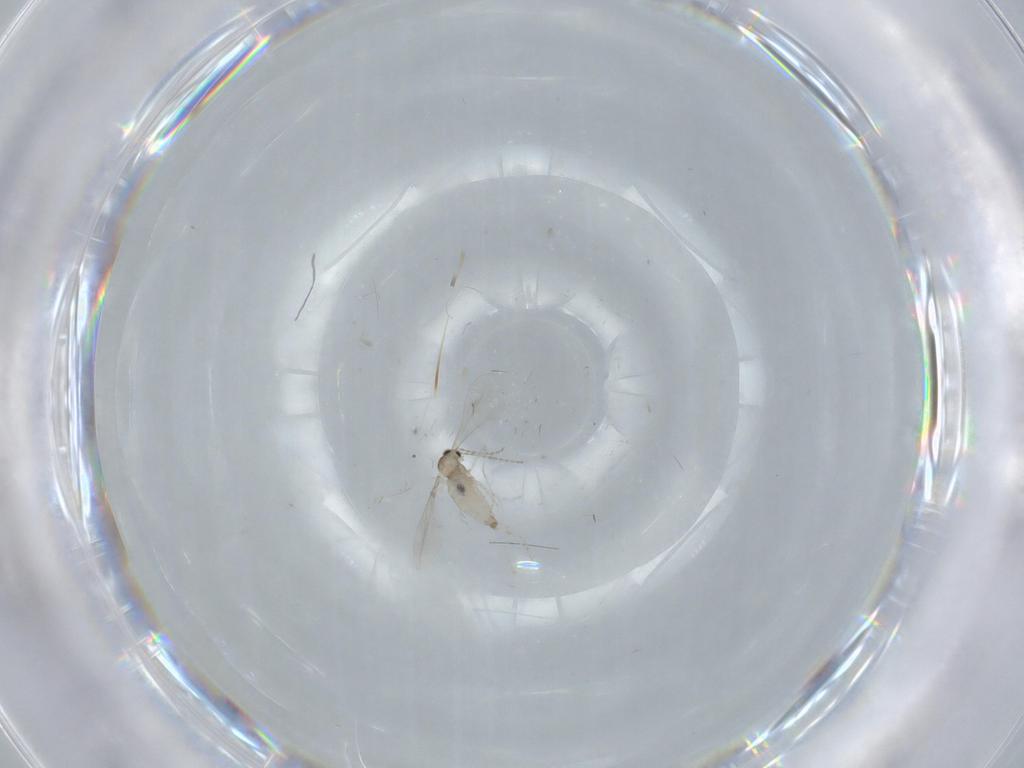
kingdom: Animalia
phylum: Arthropoda
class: Insecta
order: Diptera
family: Cecidomyiidae
